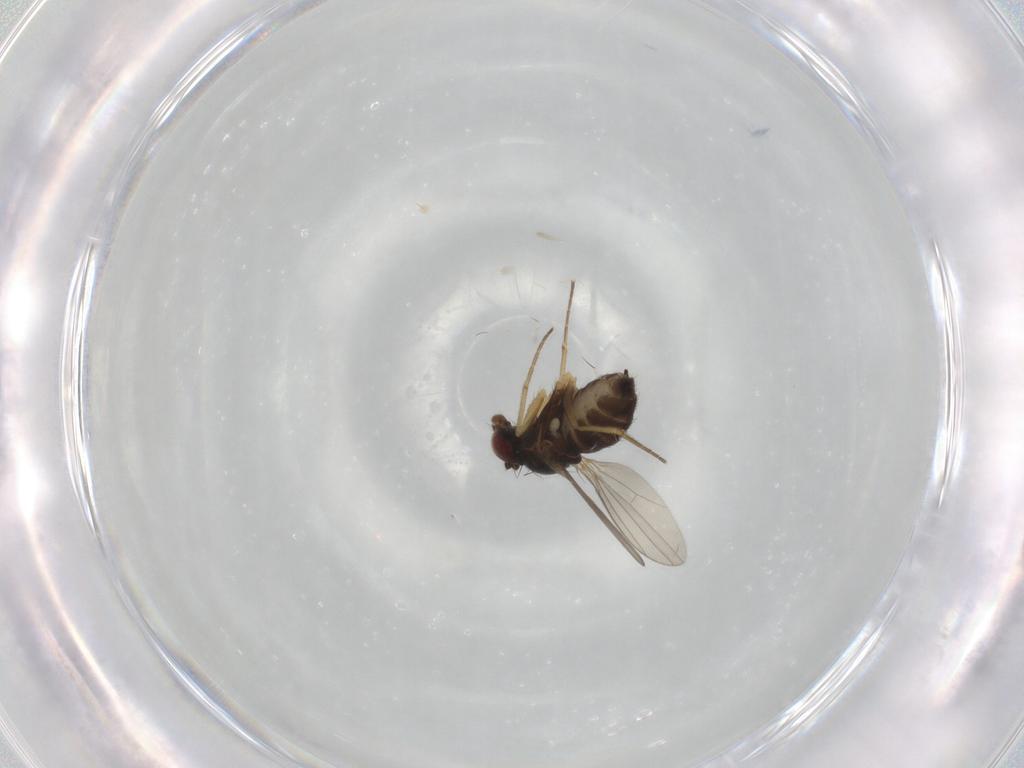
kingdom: Animalia
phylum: Arthropoda
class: Insecta
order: Diptera
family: Dolichopodidae
